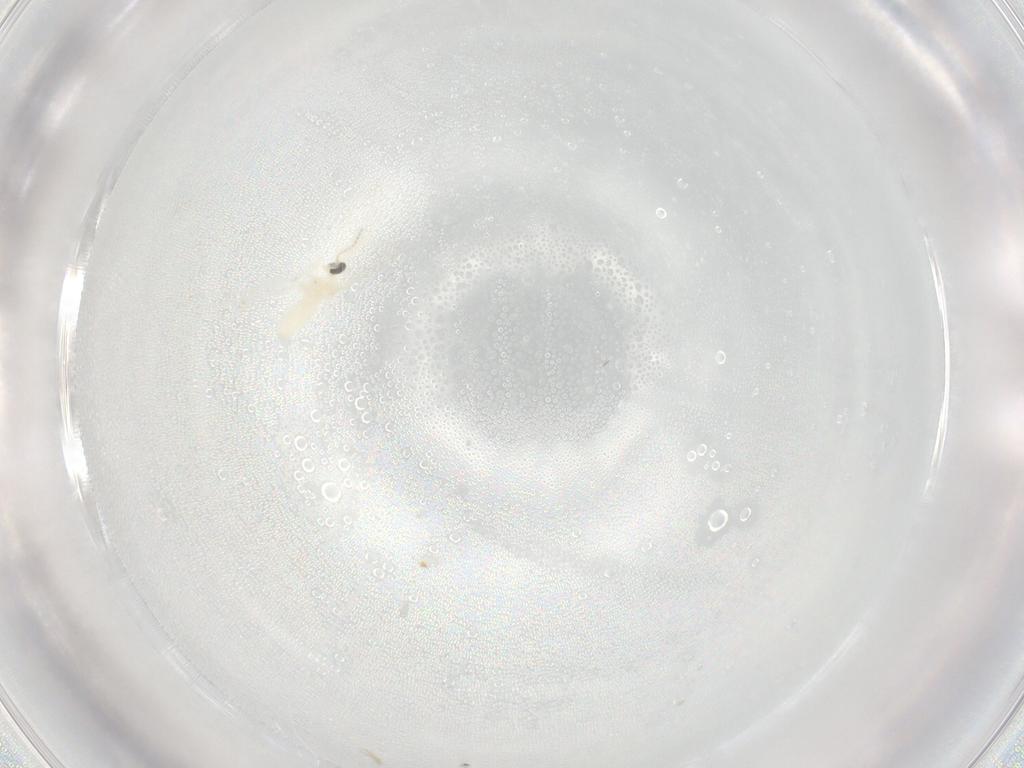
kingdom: Animalia
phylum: Arthropoda
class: Insecta
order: Diptera
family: Cecidomyiidae
